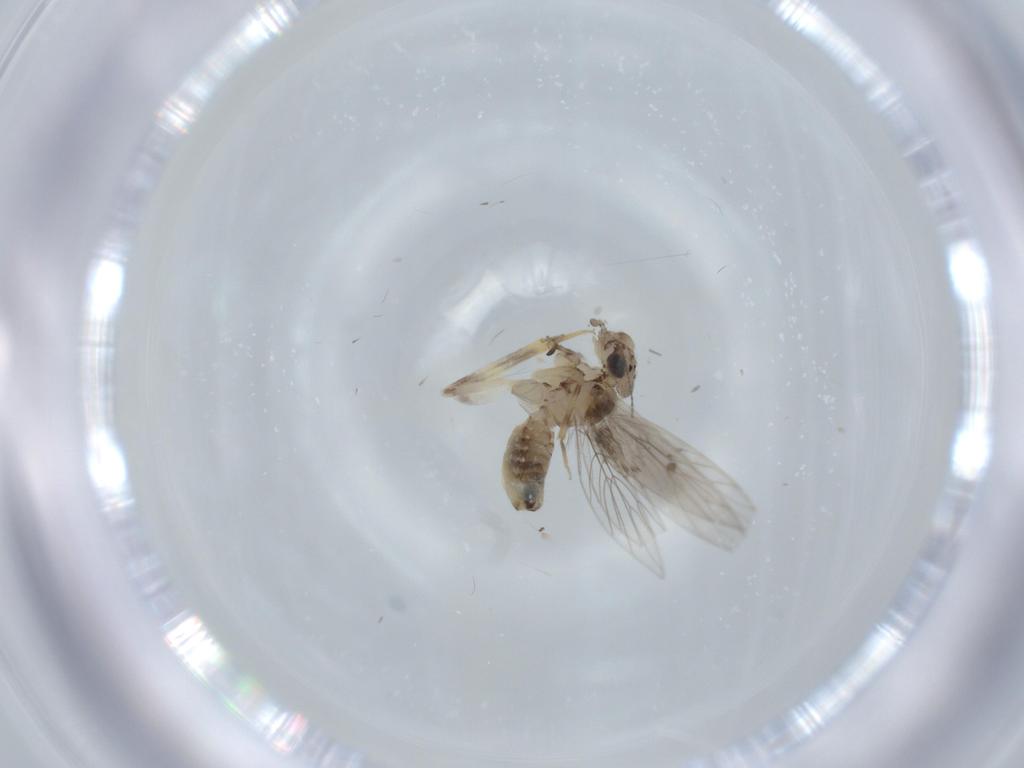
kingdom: Animalia
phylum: Arthropoda
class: Insecta
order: Psocodea
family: Lepidopsocidae
